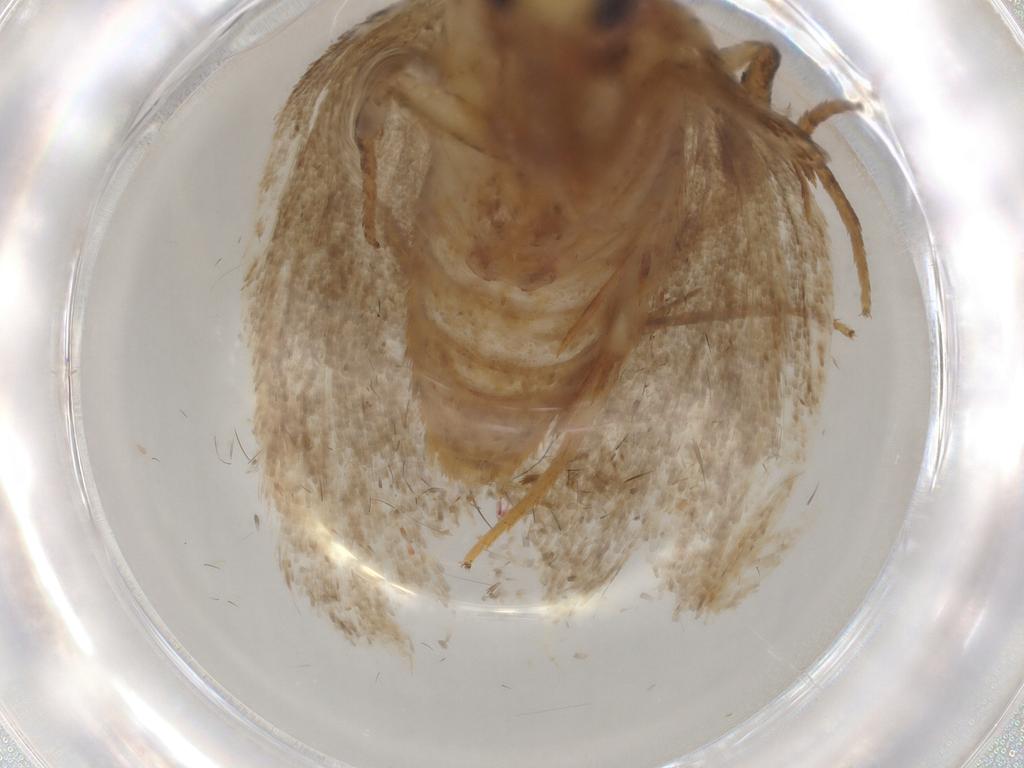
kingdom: Animalia
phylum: Arthropoda
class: Insecta
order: Lepidoptera
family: Oecophoridae
